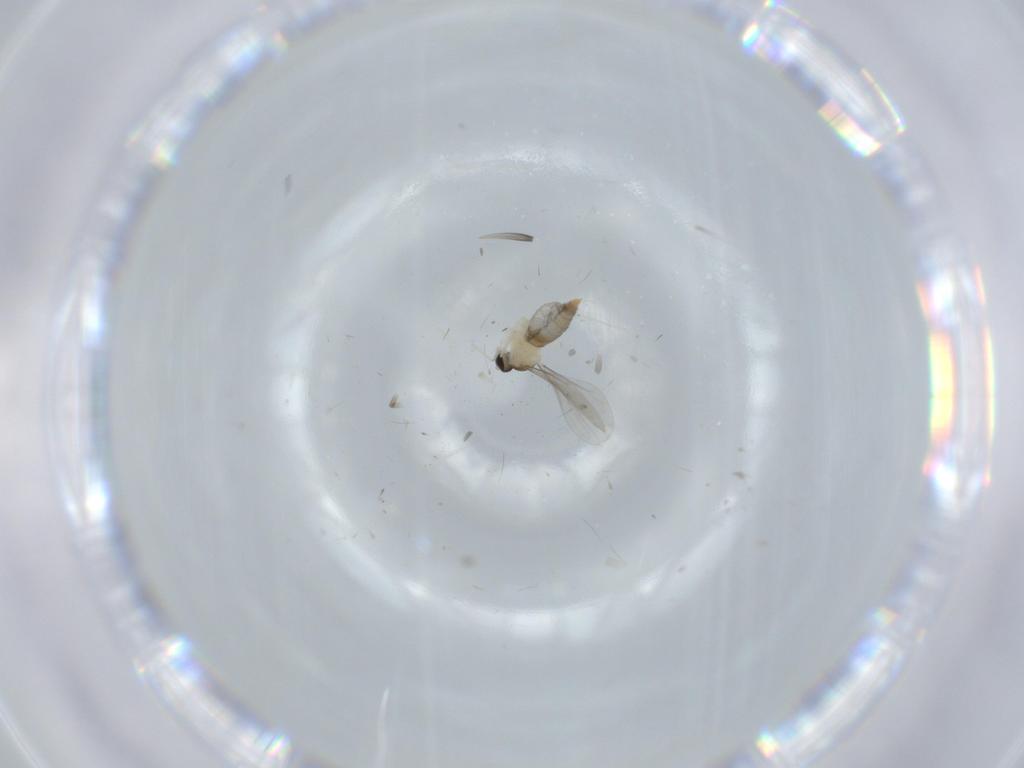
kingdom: Animalia
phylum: Arthropoda
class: Insecta
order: Diptera
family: Chironomidae
